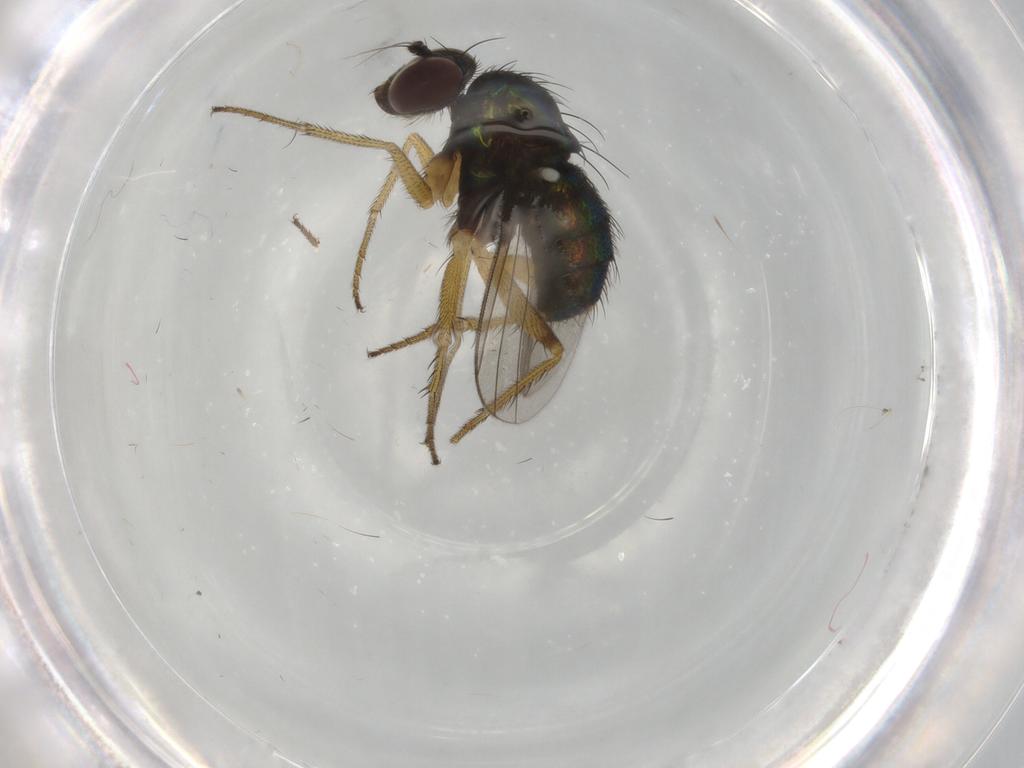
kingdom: Animalia
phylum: Arthropoda
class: Insecta
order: Diptera
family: Dolichopodidae
